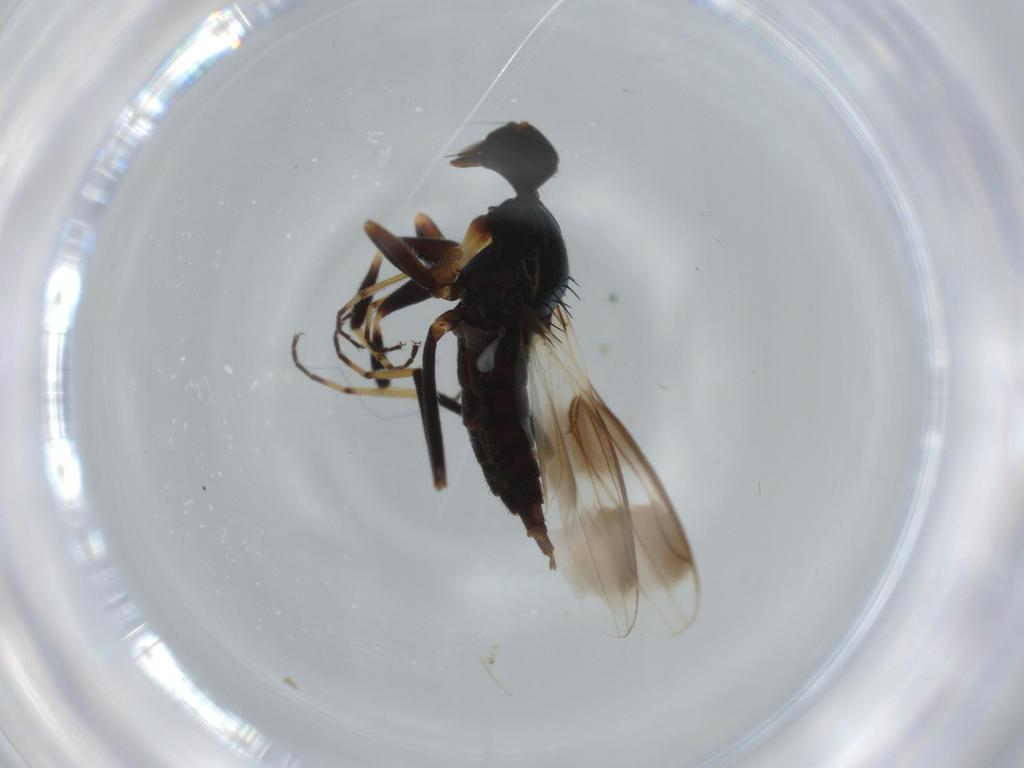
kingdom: Animalia
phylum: Arthropoda
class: Insecta
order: Diptera
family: Hybotidae
